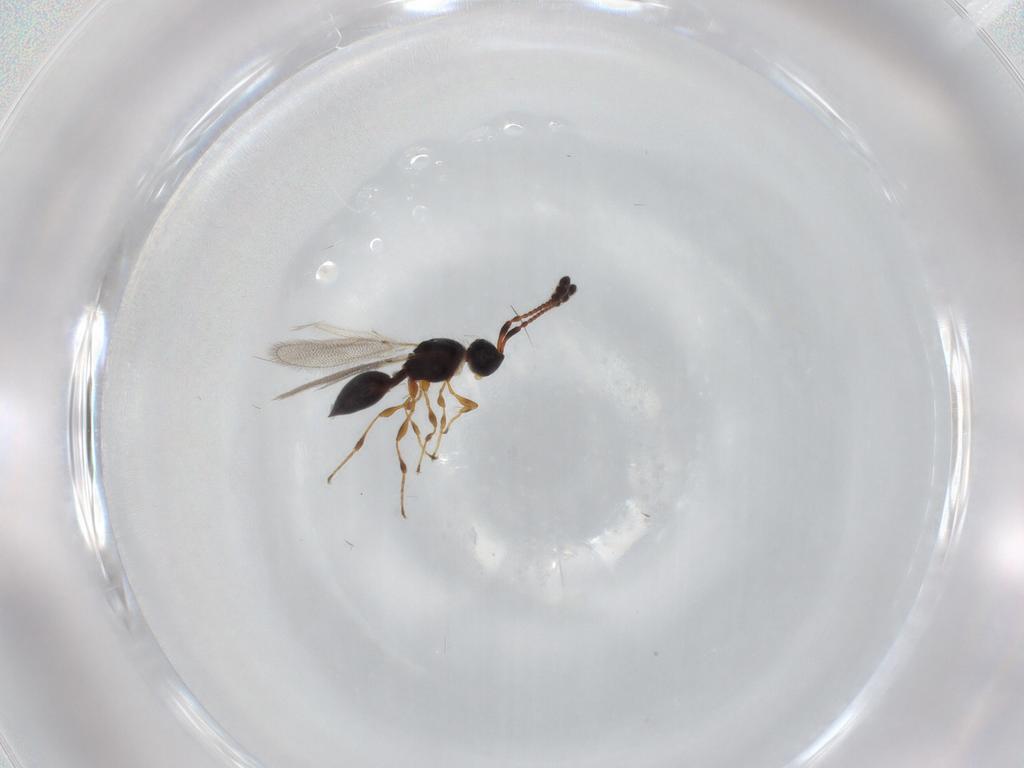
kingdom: Animalia
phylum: Arthropoda
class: Insecta
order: Hymenoptera
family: Diapriidae
